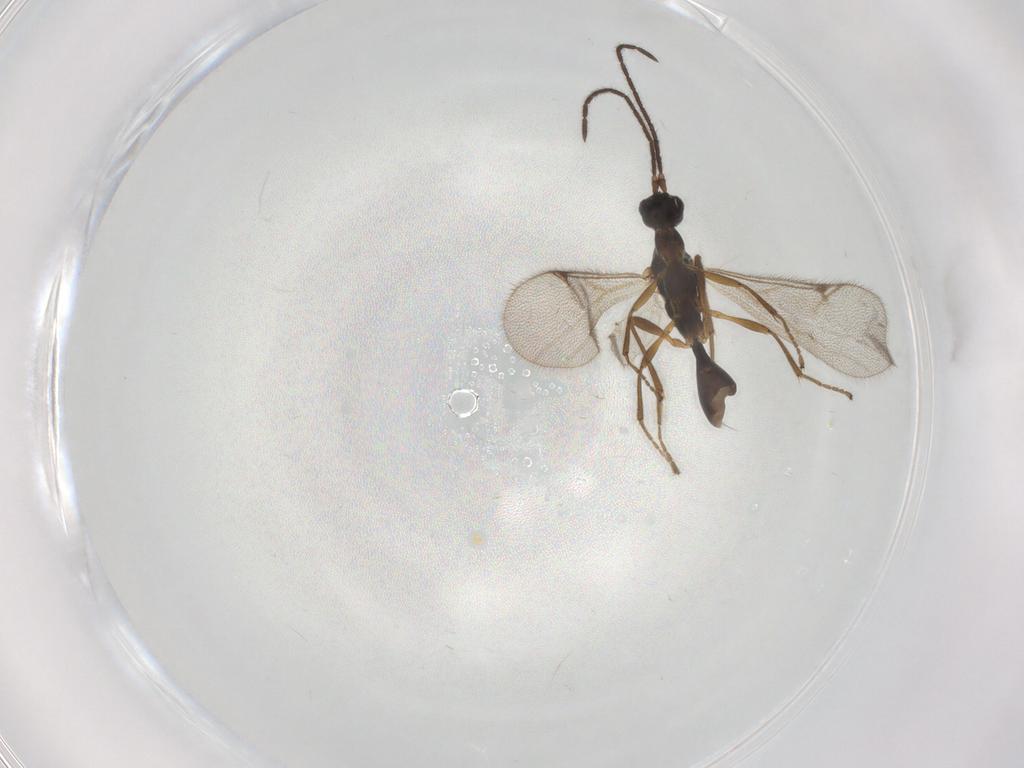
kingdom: Animalia
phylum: Arthropoda
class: Insecta
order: Hymenoptera
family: Proctotrupidae
